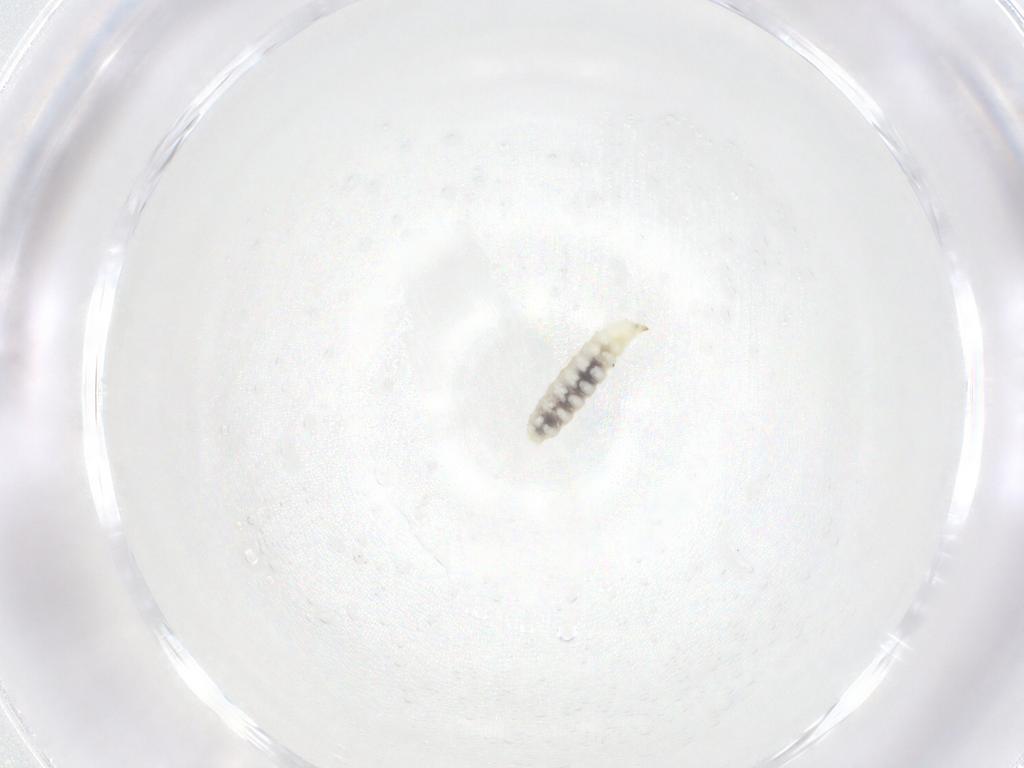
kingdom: Animalia
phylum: Arthropoda
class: Insecta
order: Diptera
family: Cecidomyiidae
